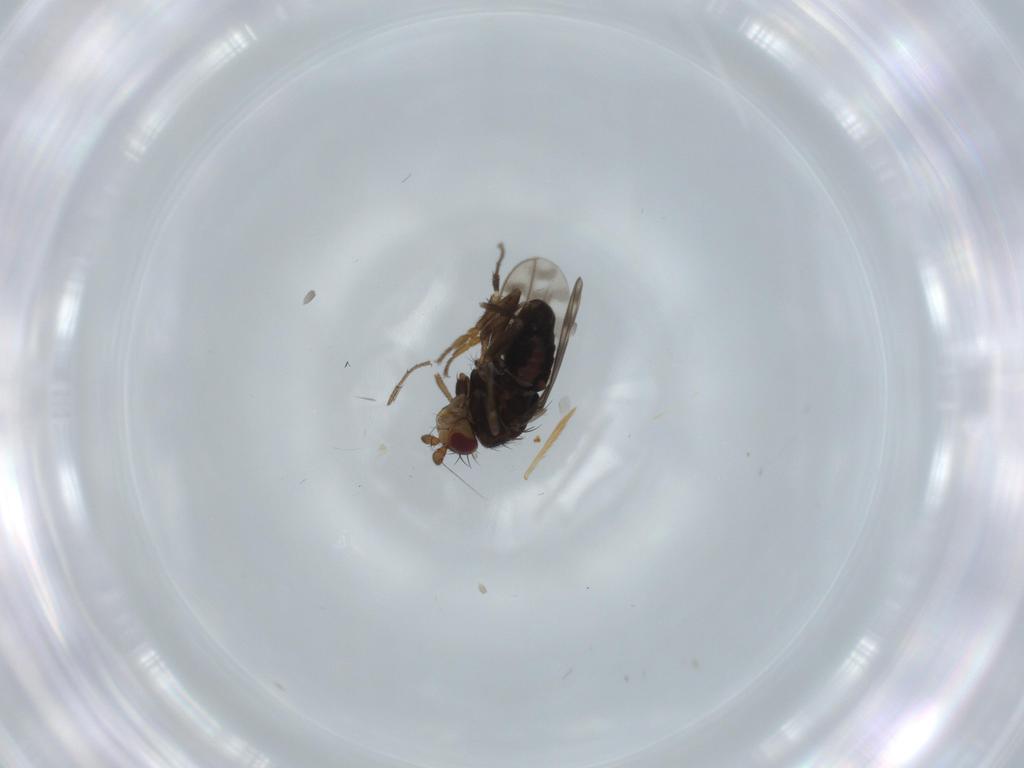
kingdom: Animalia
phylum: Arthropoda
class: Insecta
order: Diptera
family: Sphaeroceridae
